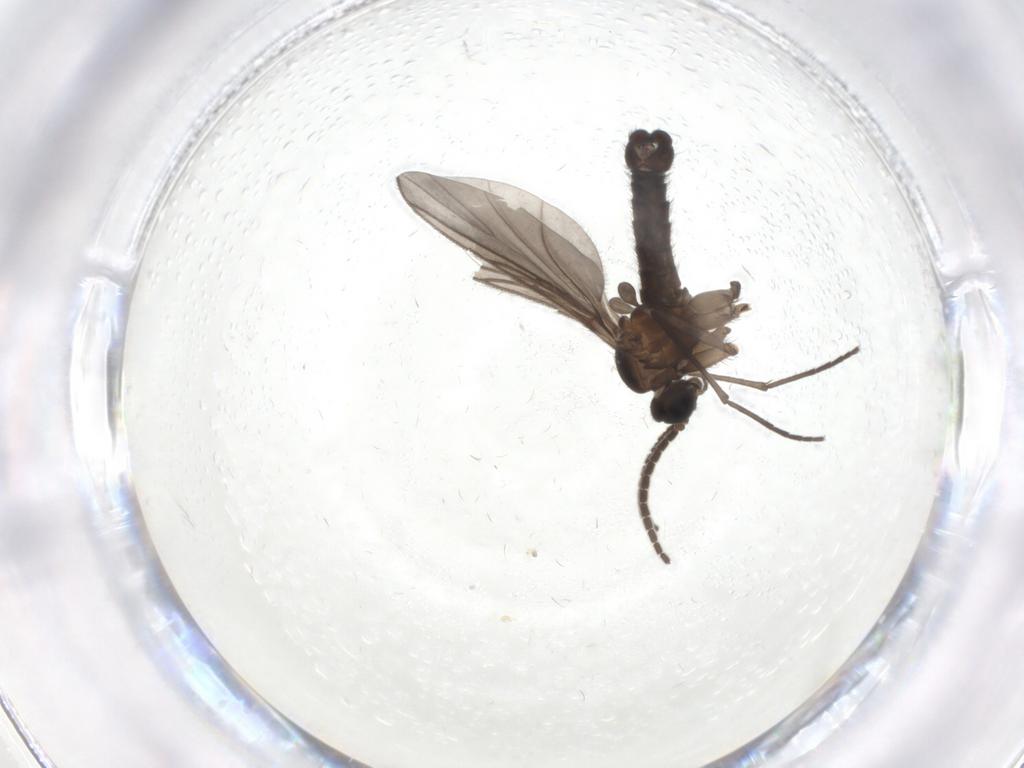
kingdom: Animalia
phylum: Arthropoda
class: Insecta
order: Diptera
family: Sciaridae
